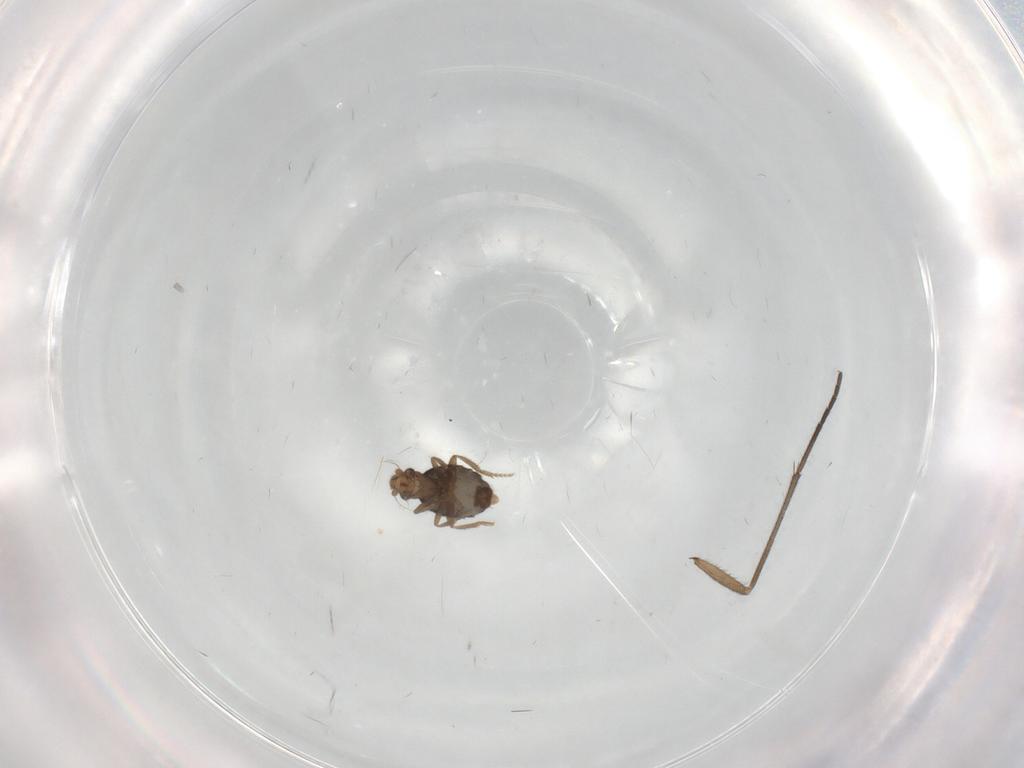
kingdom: Animalia
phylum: Arthropoda
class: Insecta
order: Diptera
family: Phoridae
